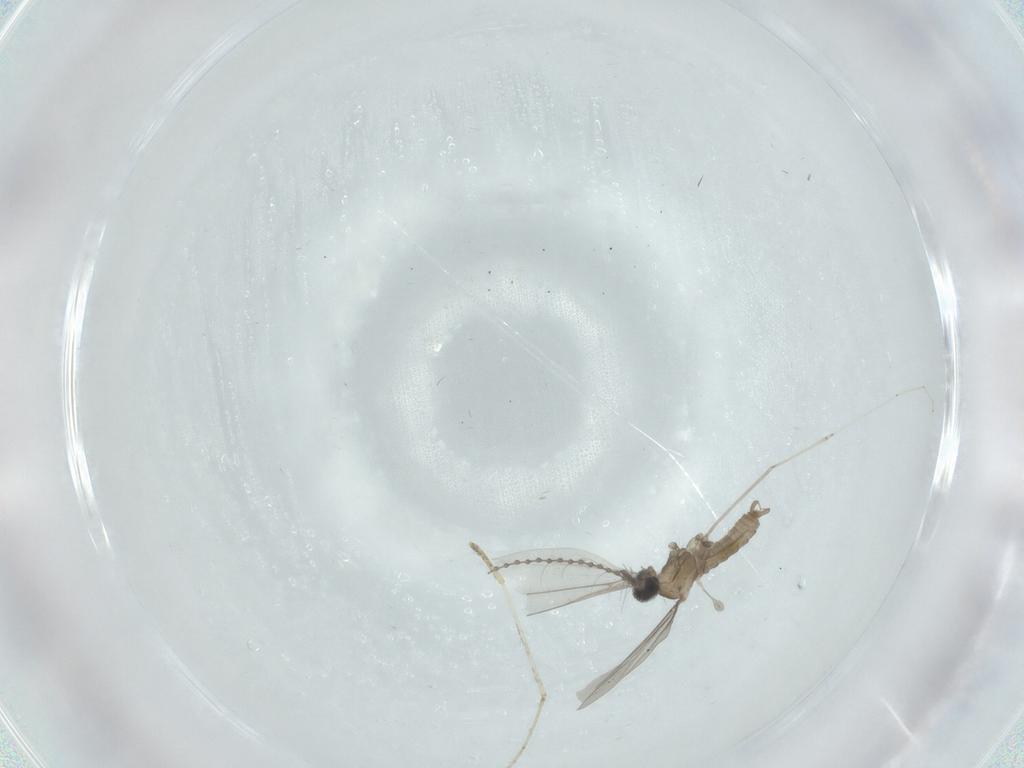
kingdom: Animalia
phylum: Arthropoda
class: Insecta
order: Diptera
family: Cecidomyiidae
